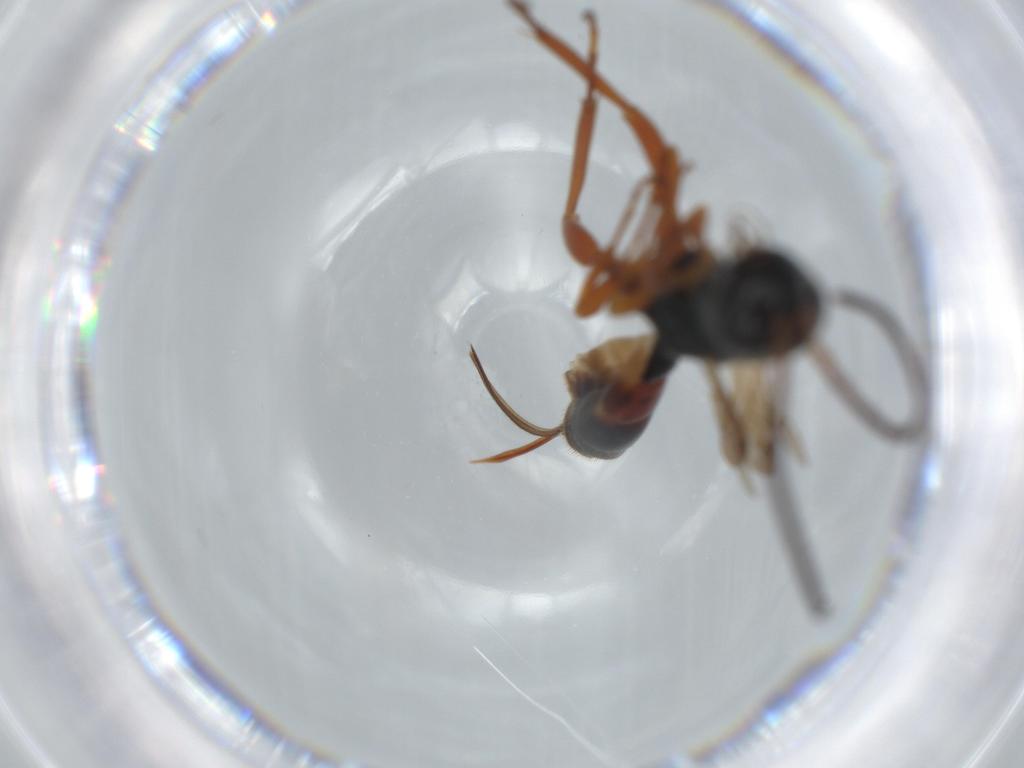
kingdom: Animalia
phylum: Arthropoda
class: Insecta
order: Hymenoptera
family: Ichneumonidae
